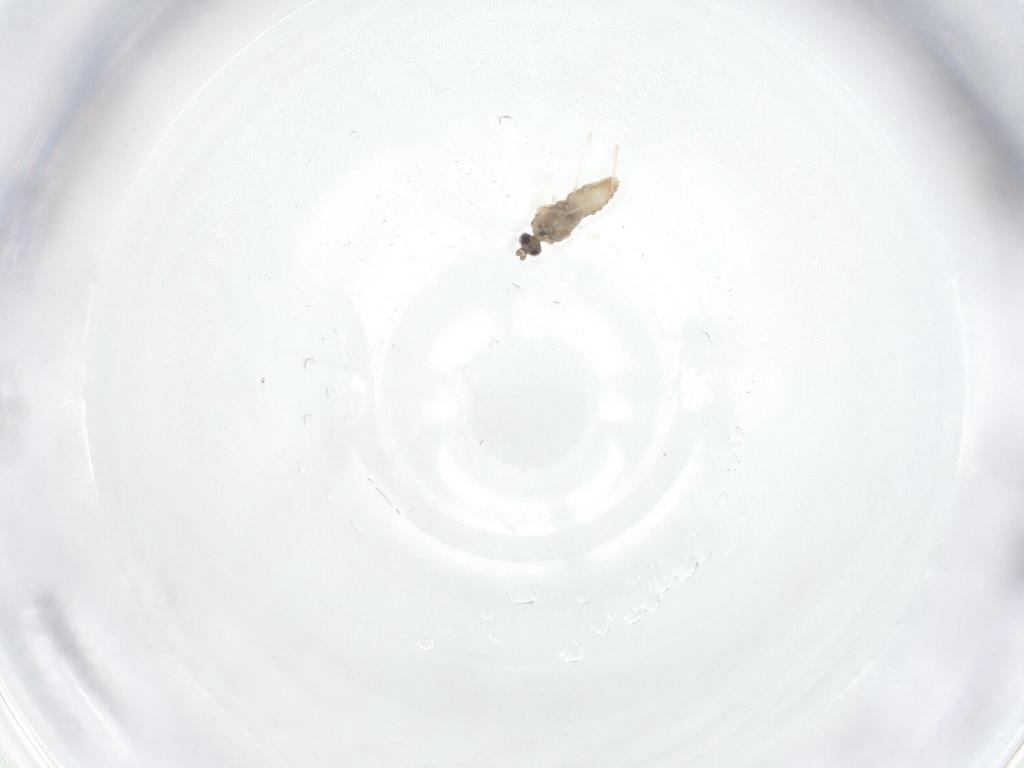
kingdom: Animalia
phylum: Arthropoda
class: Insecta
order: Diptera
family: Cecidomyiidae
